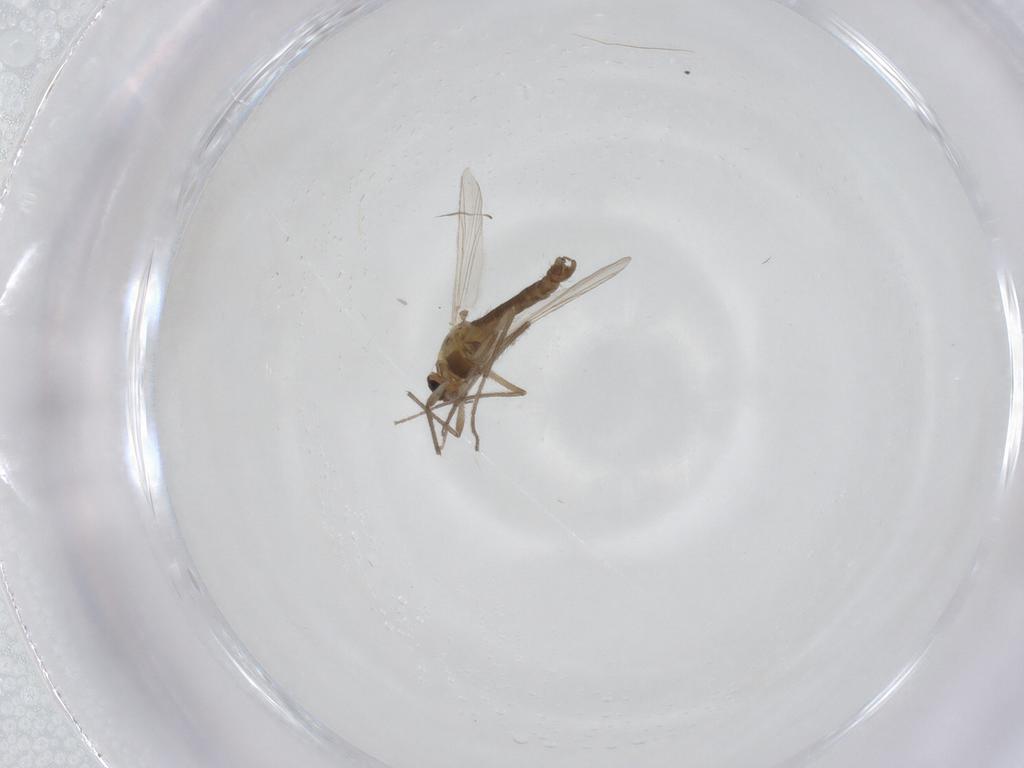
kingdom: Animalia
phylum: Arthropoda
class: Insecta
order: Diptera
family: Chironomidae
